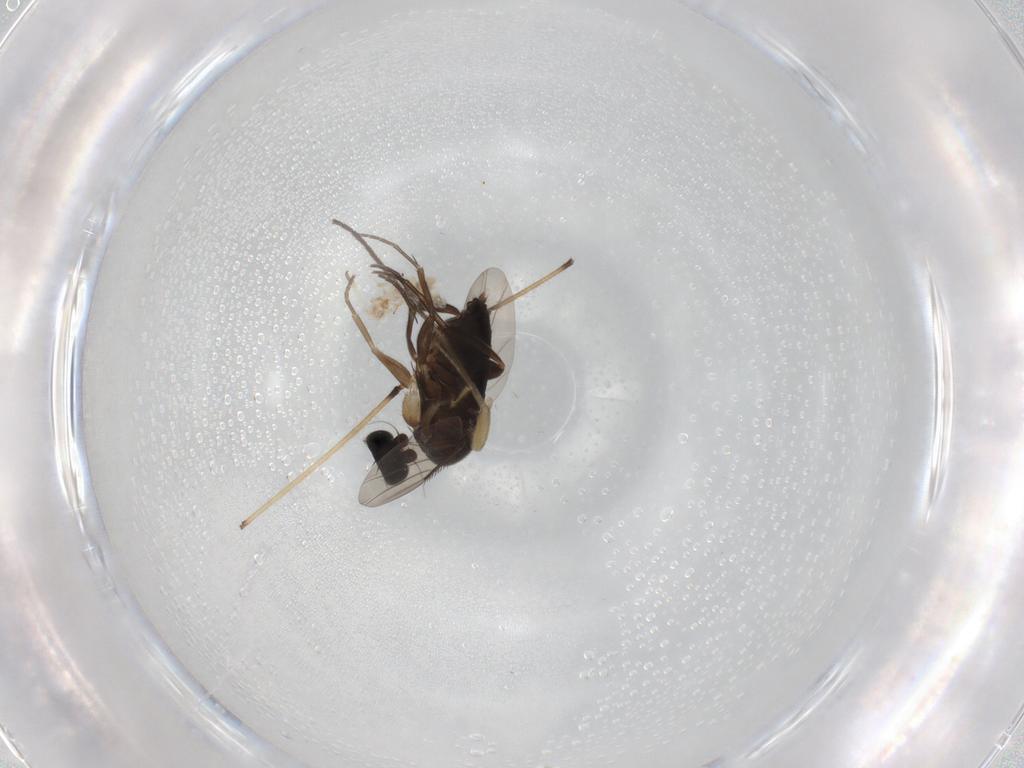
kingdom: Animalia
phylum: Arthropoda
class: Insecta
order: Diptera
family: Phoridae
